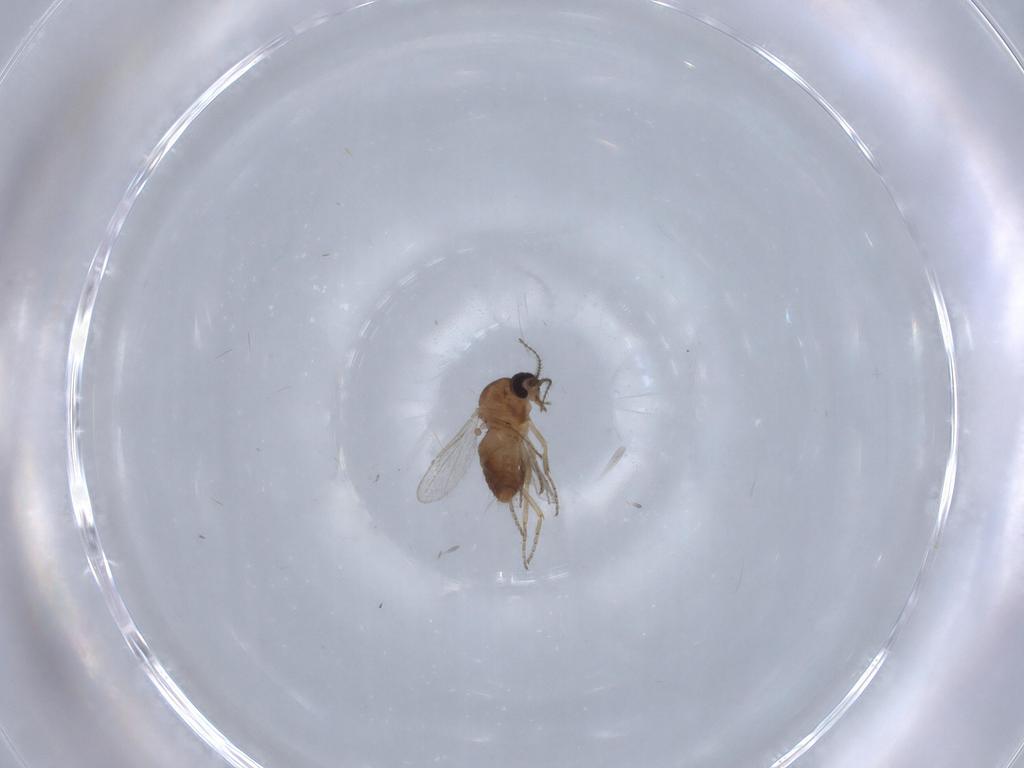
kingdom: Animalia
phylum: Arthropoda
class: Insecta
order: Diptera
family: Ceratopogonidae
